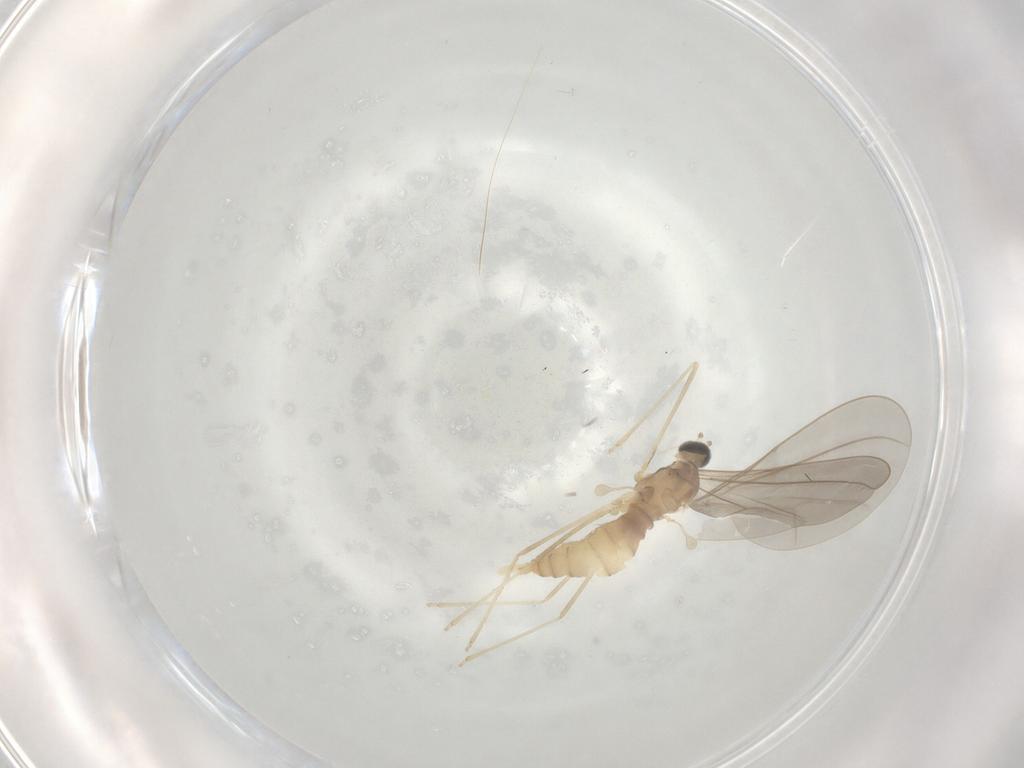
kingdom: Animalia
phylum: Arthropoda
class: Insecta
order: Diptera
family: Cecidomyiidae
